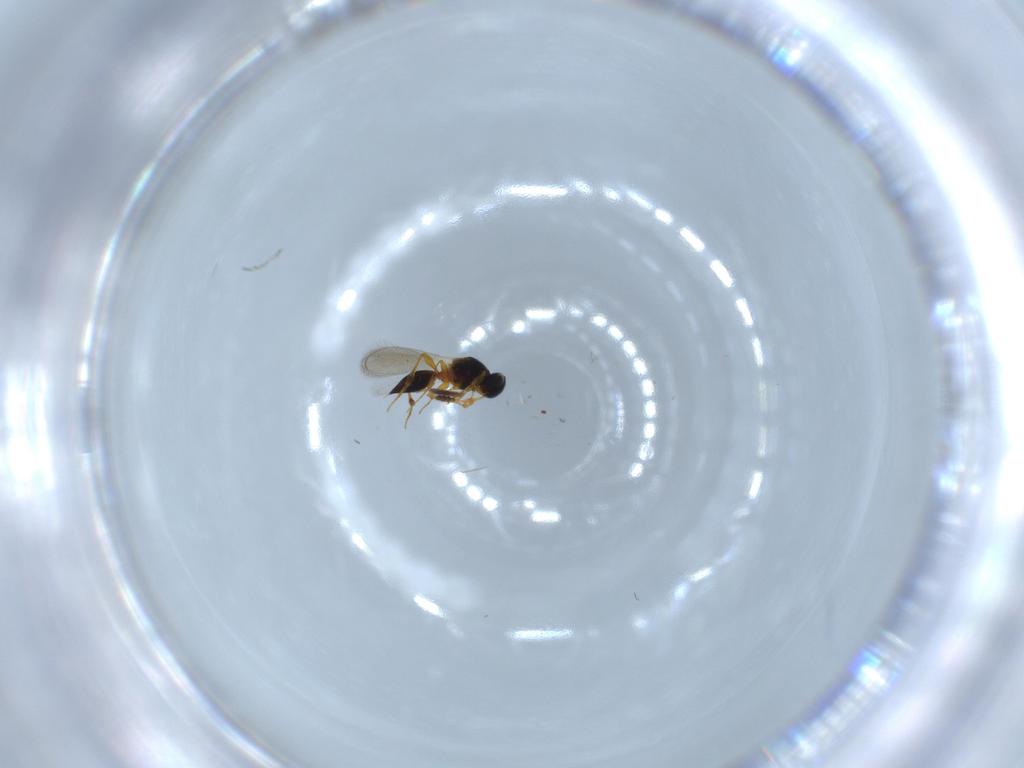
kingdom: Animalia
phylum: Arthropoda
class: Insecta
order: Hymenoptera
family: Platygastridae
